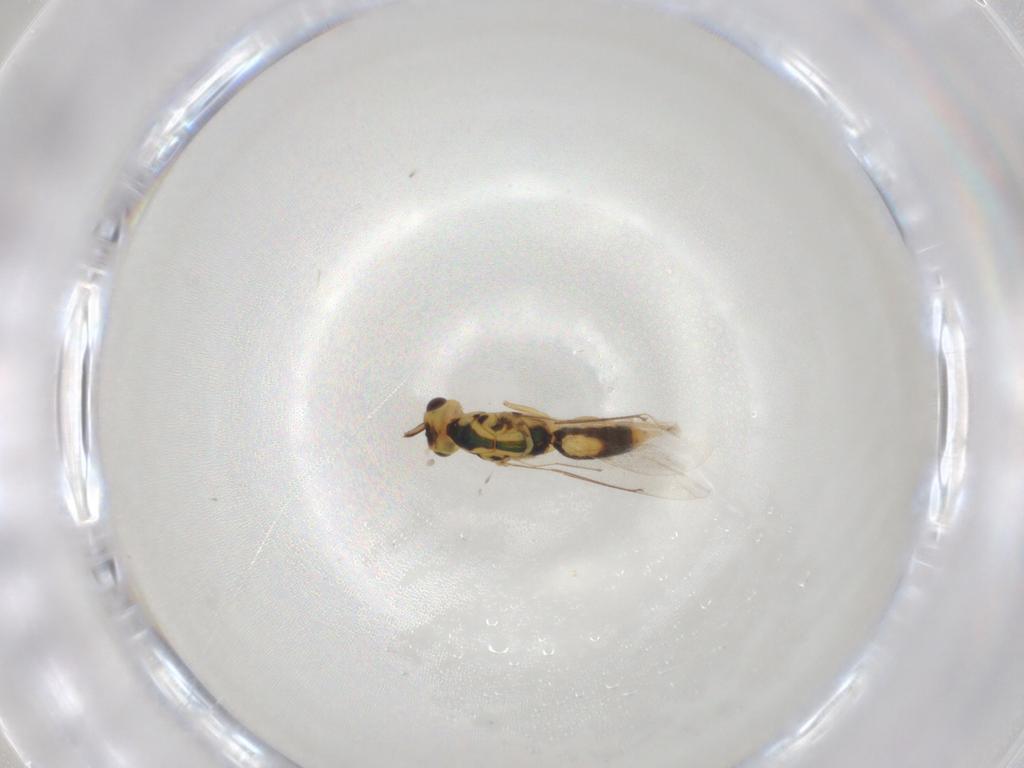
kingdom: Animalia
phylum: Arthropoda
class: Insecta
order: Hymenoptera
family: Eulophidae
